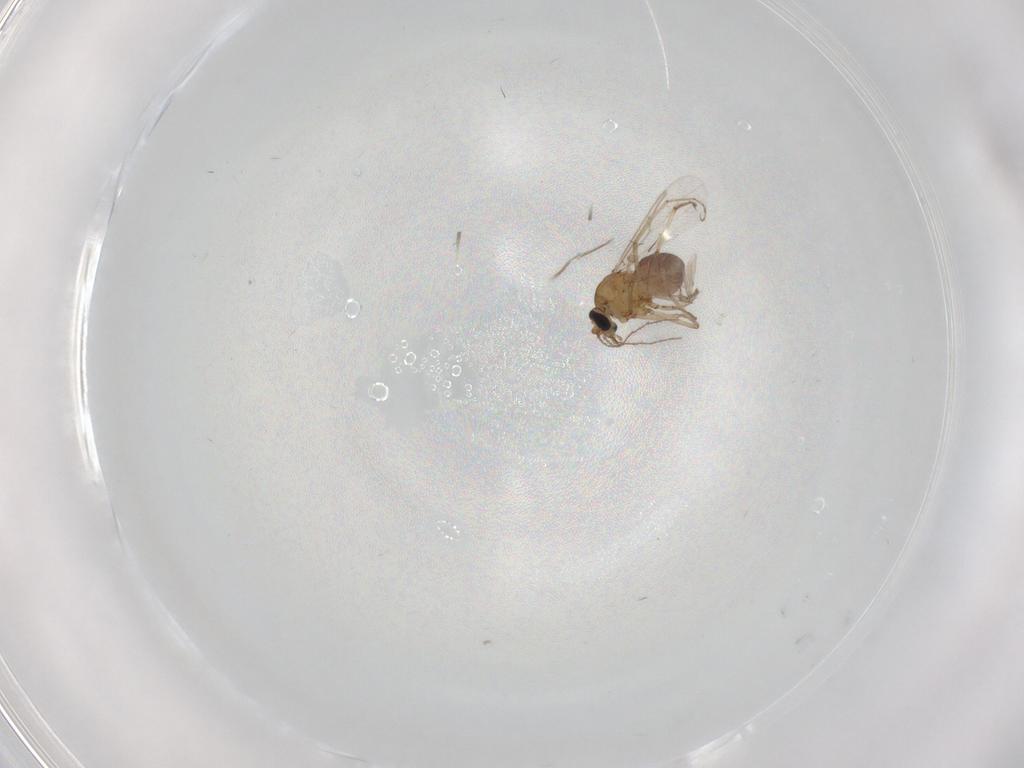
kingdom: Animalia
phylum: Arthropoda
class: Insecta
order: Diptera
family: Cecidomyiidae
